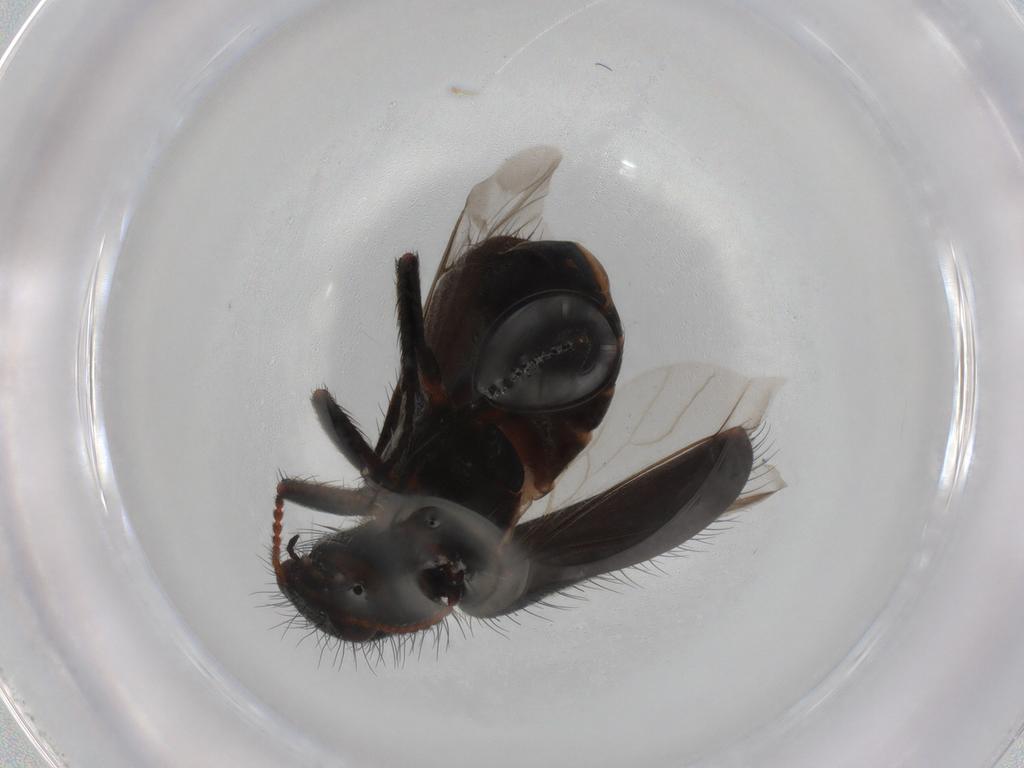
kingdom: Animalia
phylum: Arthropoda
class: Insecta
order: Coleoptera
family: Melyridae
